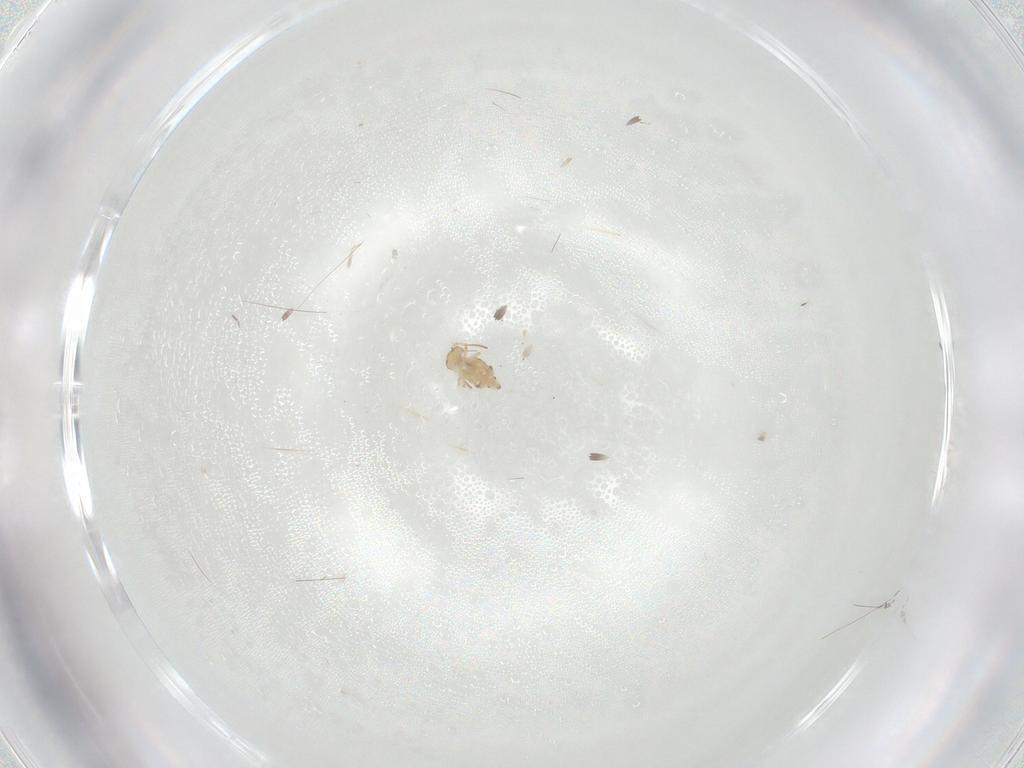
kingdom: Animalia
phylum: Arthropoda
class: Collembola
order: Symphypleona
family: Bourletiellidae
